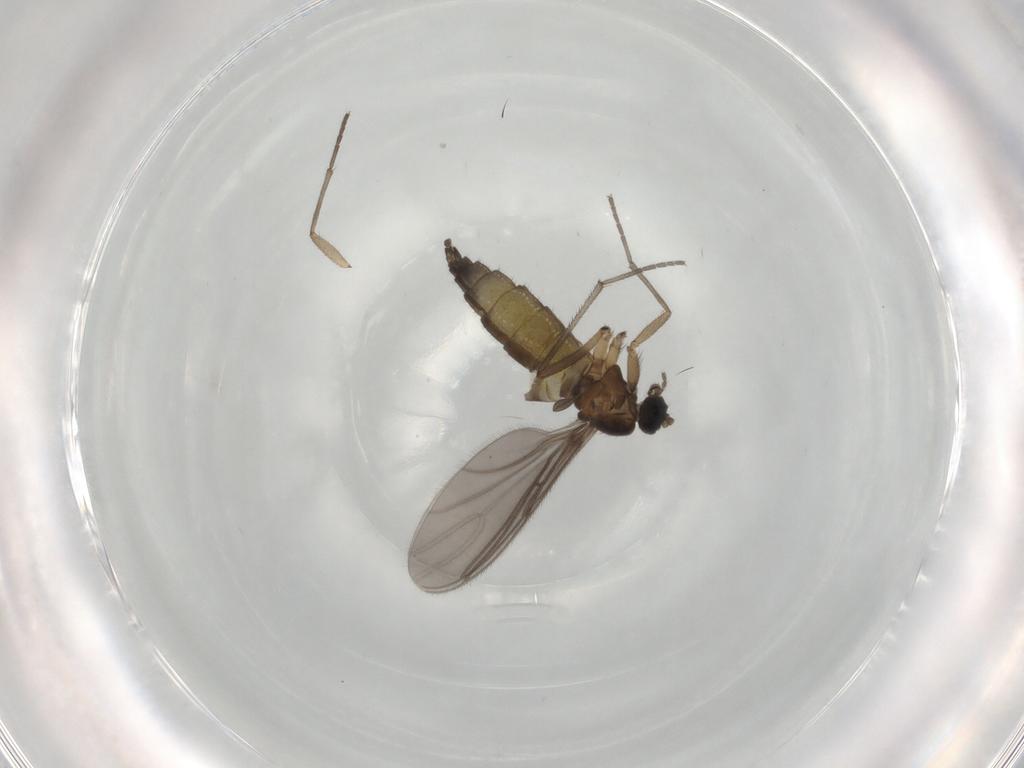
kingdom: Animalia
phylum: Arthropoda
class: Insecta
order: Diptera
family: Sciaridae
